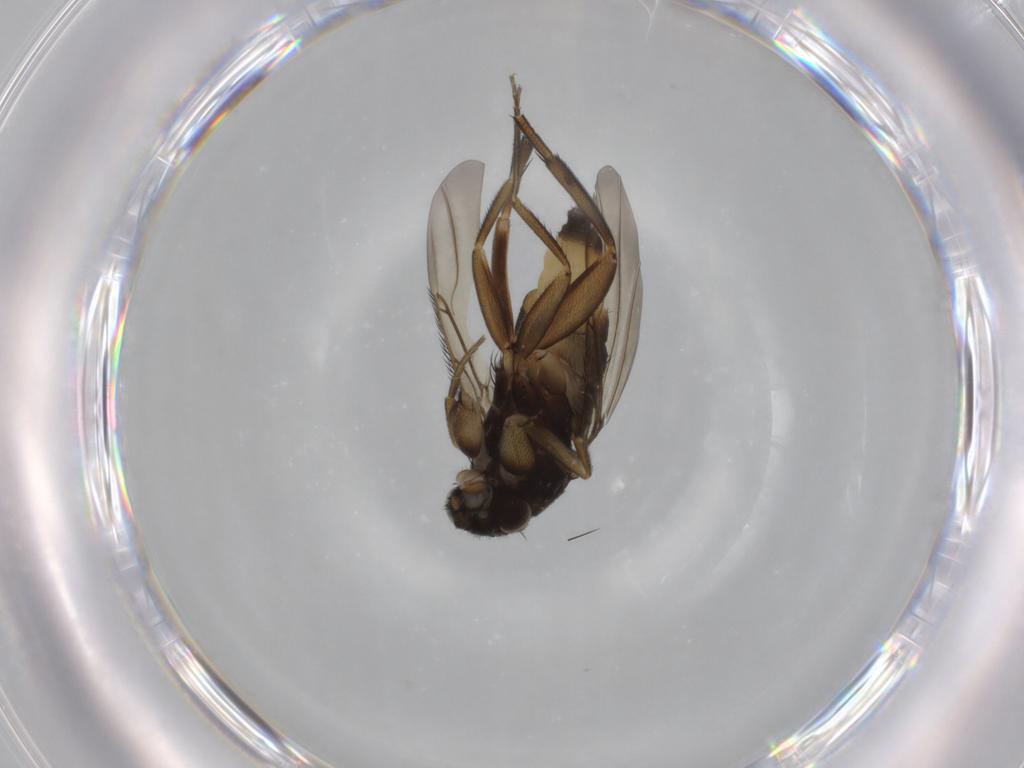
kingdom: Animalia
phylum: Arthropoda
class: Insecta
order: Diptera
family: Phoridae
